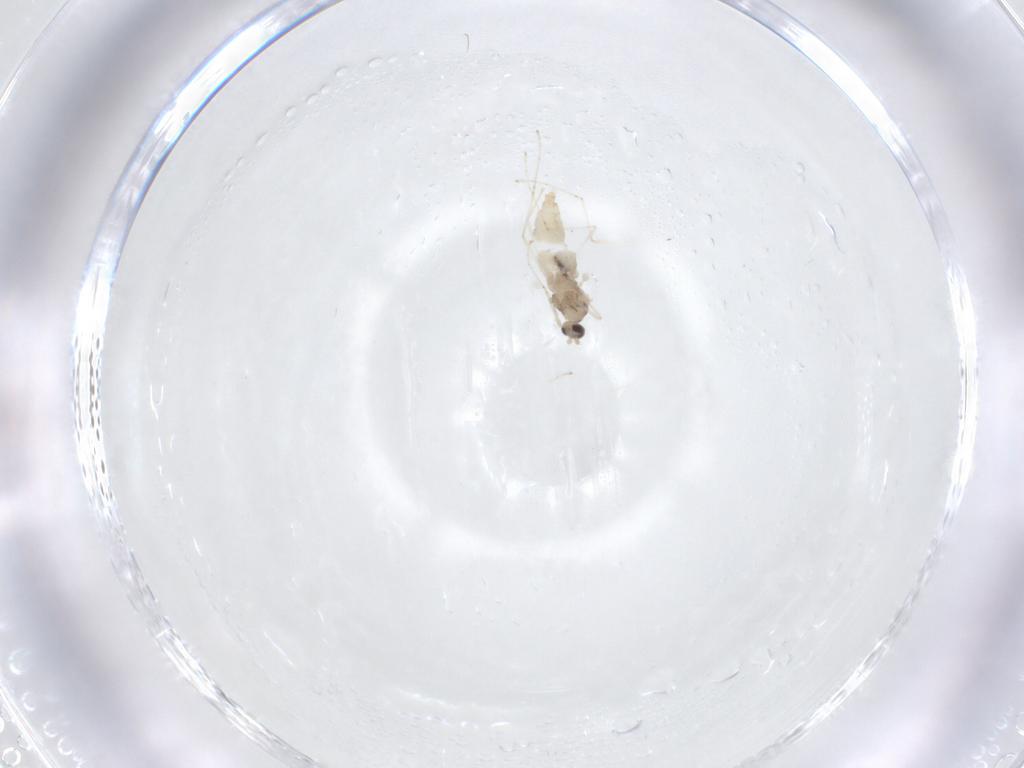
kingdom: Animalia
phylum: Arthropoda
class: Insecta
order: Diptera
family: Cecidomyiidae
